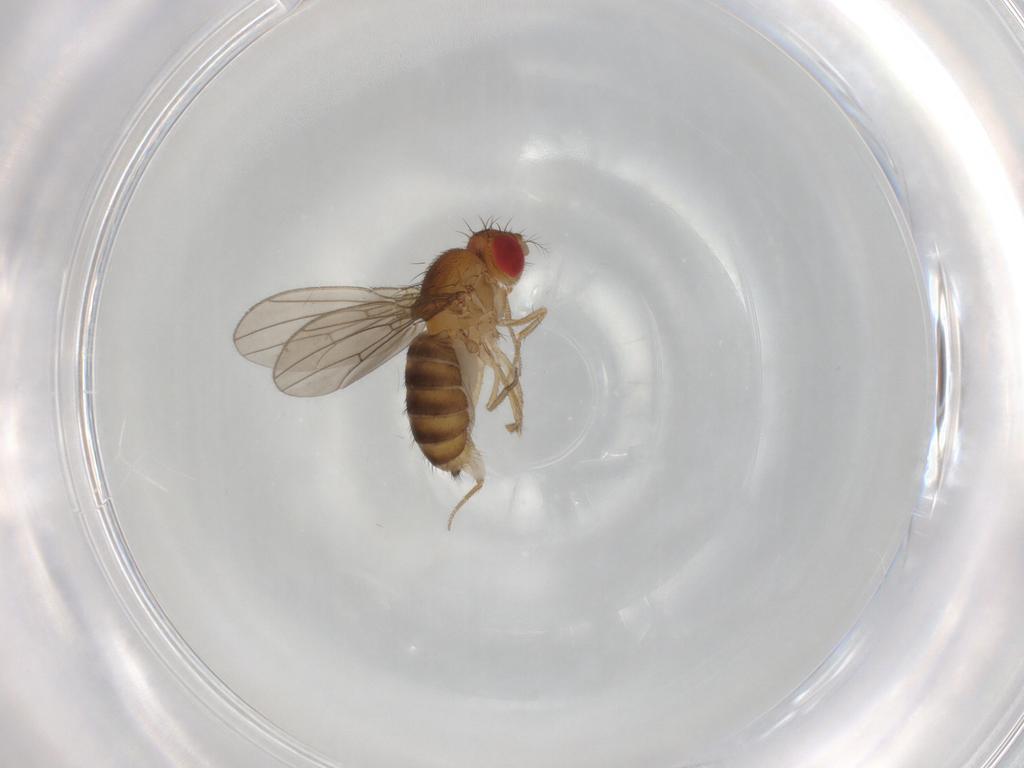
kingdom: Animalia
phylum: Arthropoda
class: Insecta
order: Diptera
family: Drosophilidae
